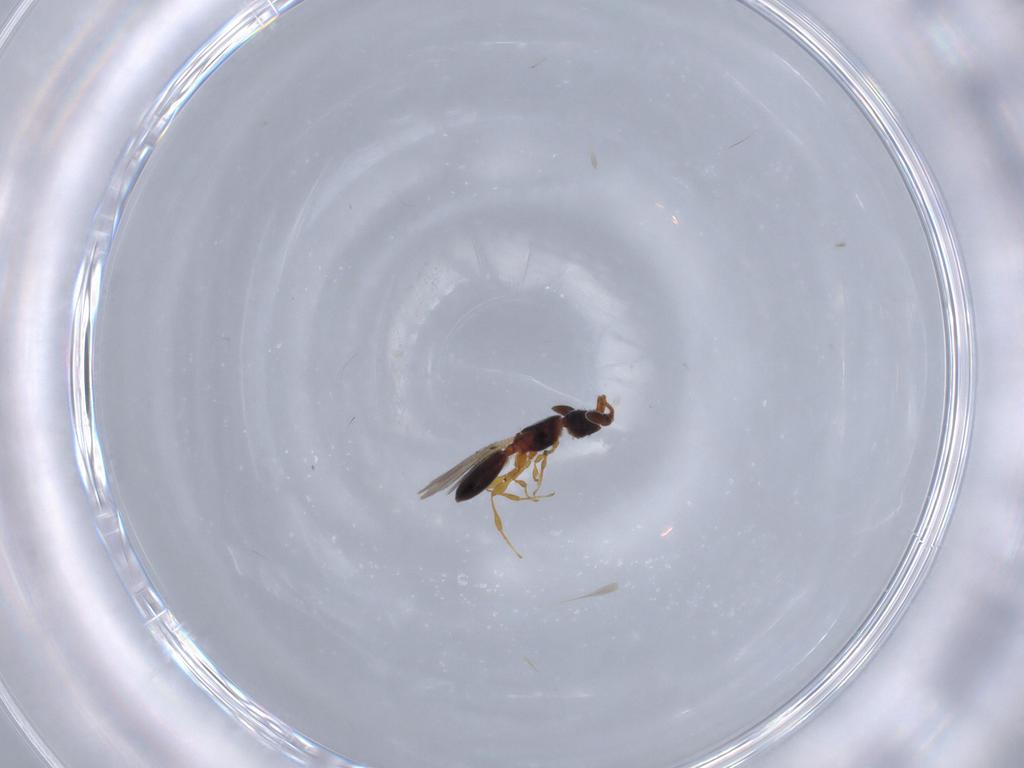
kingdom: Animalia
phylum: Arthropoda
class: Insecta
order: Hymenoptera
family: Diapriidae
